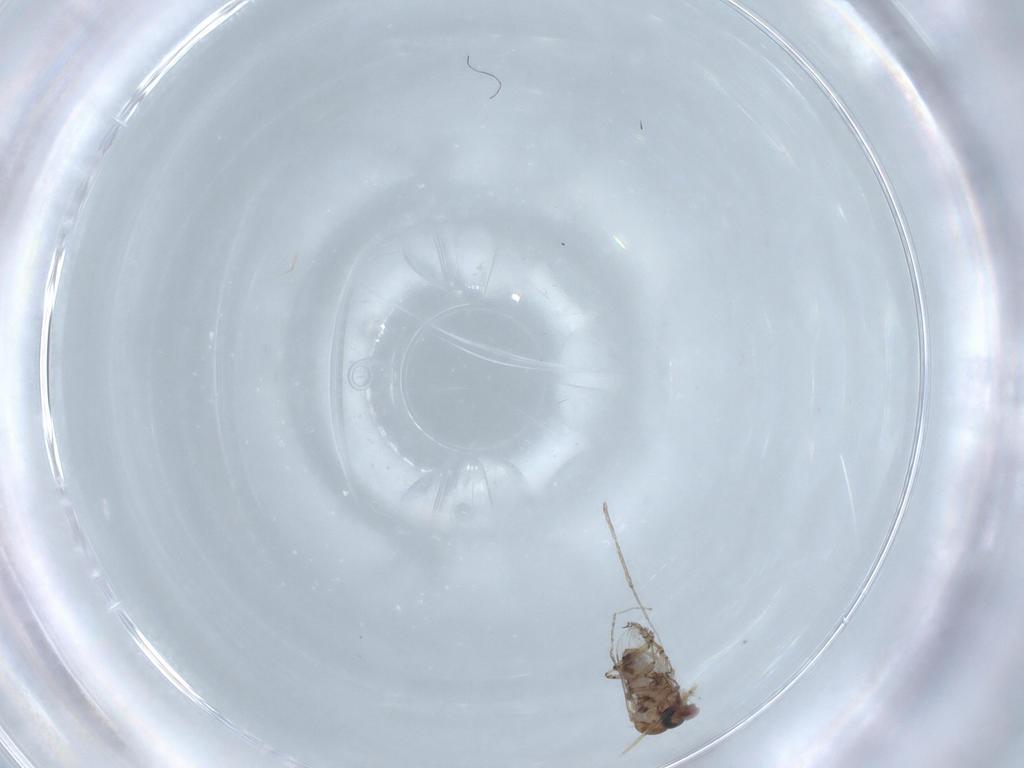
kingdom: Animalia
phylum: Arthropoda
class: Insecta
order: Diptera
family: Ceratopogonidae
